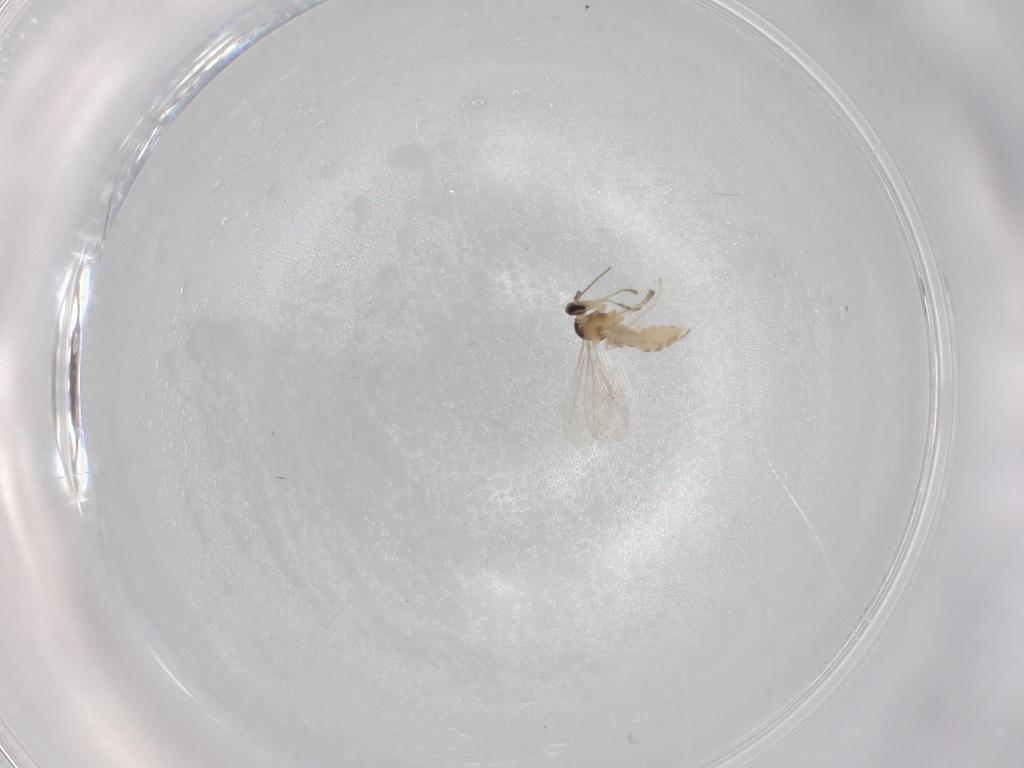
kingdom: Animalia
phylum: Arthropoda
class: Insecta
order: Diptera
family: Cecidomyiidae
